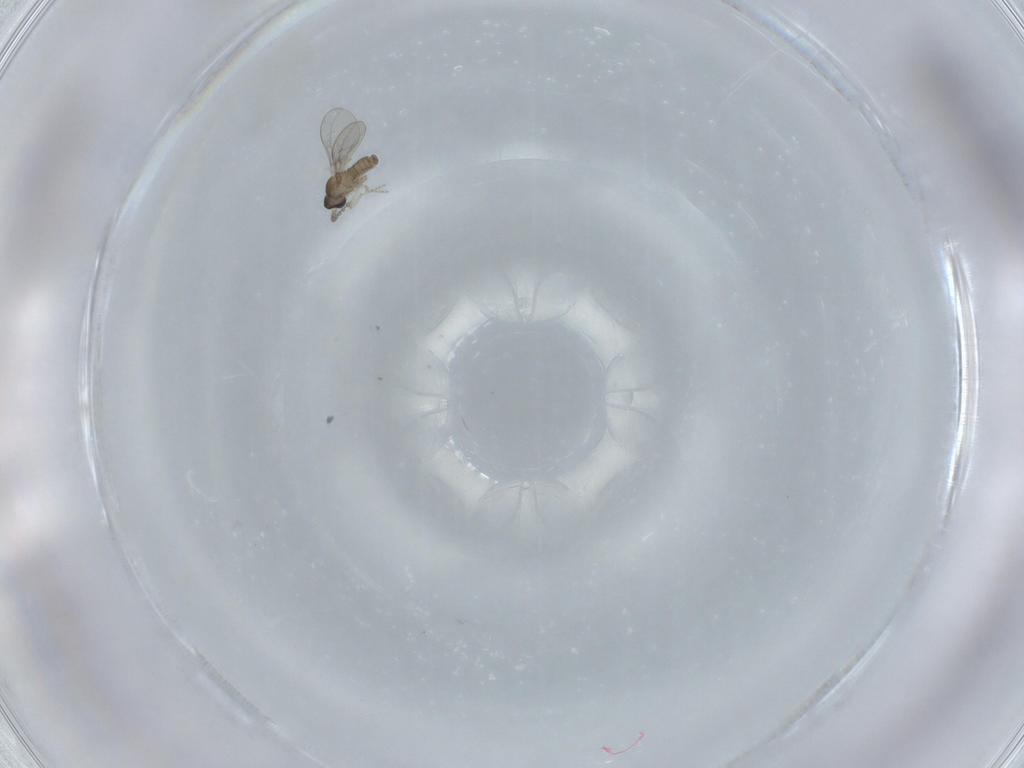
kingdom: Animalia
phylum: Arthropoda
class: Insecta
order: Diptera
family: Cecidomyiidae
